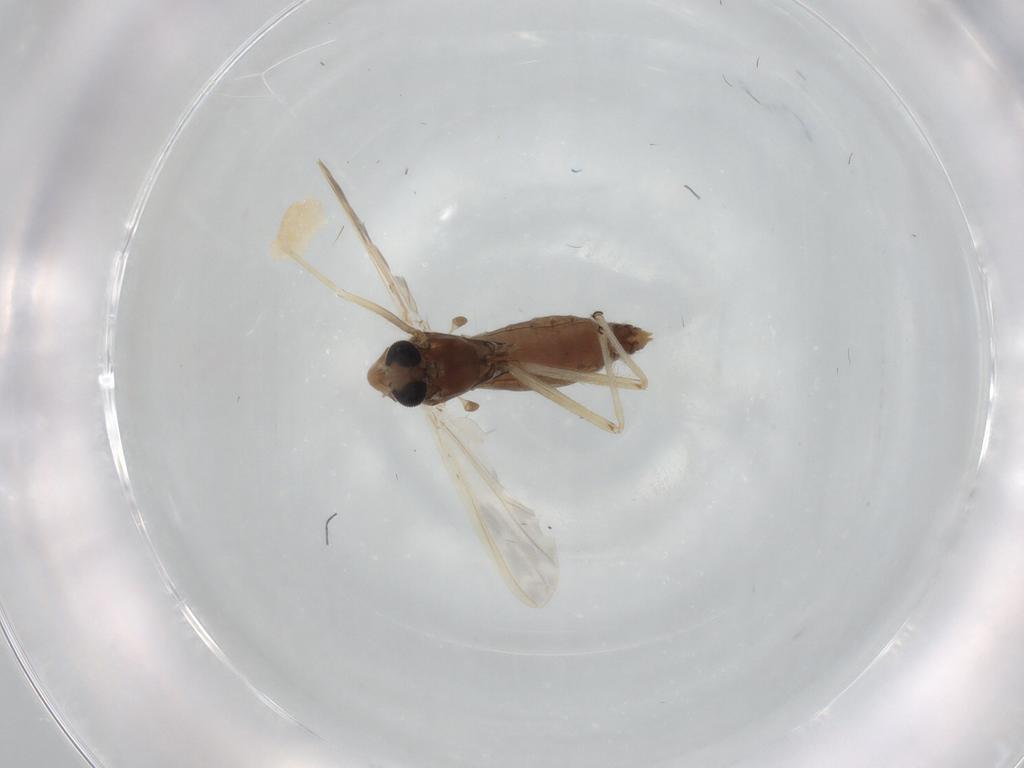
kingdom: Animalia
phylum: Arthropoda
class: Insecta
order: Diptera
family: Chironomidae
